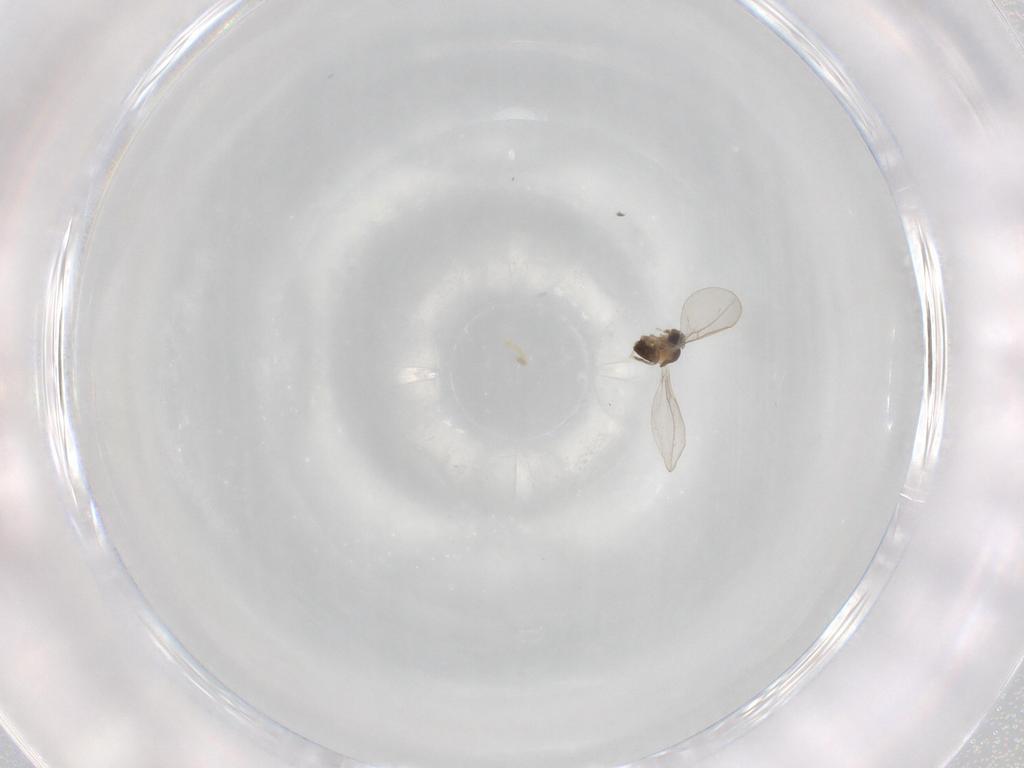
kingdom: Animalia
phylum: Arthropoda
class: Insecta
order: Diptera
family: Cecidomyiidae
